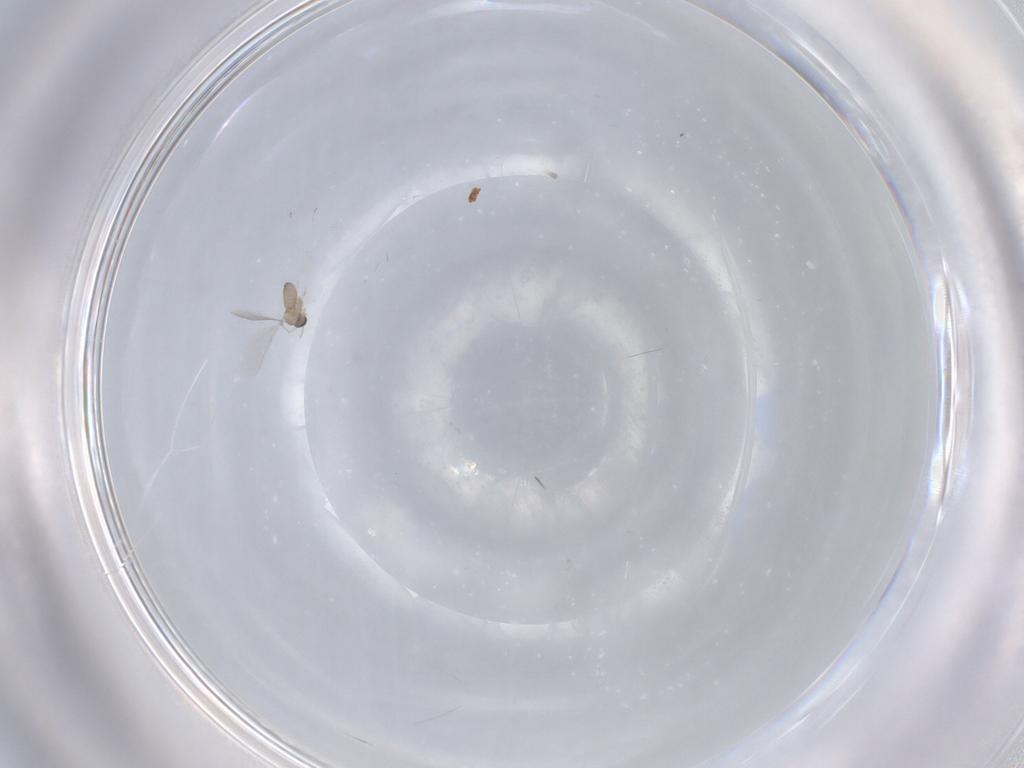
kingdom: Animalia
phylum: Arthropoda
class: Insecta
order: Diptera
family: Cecidomyiidae
